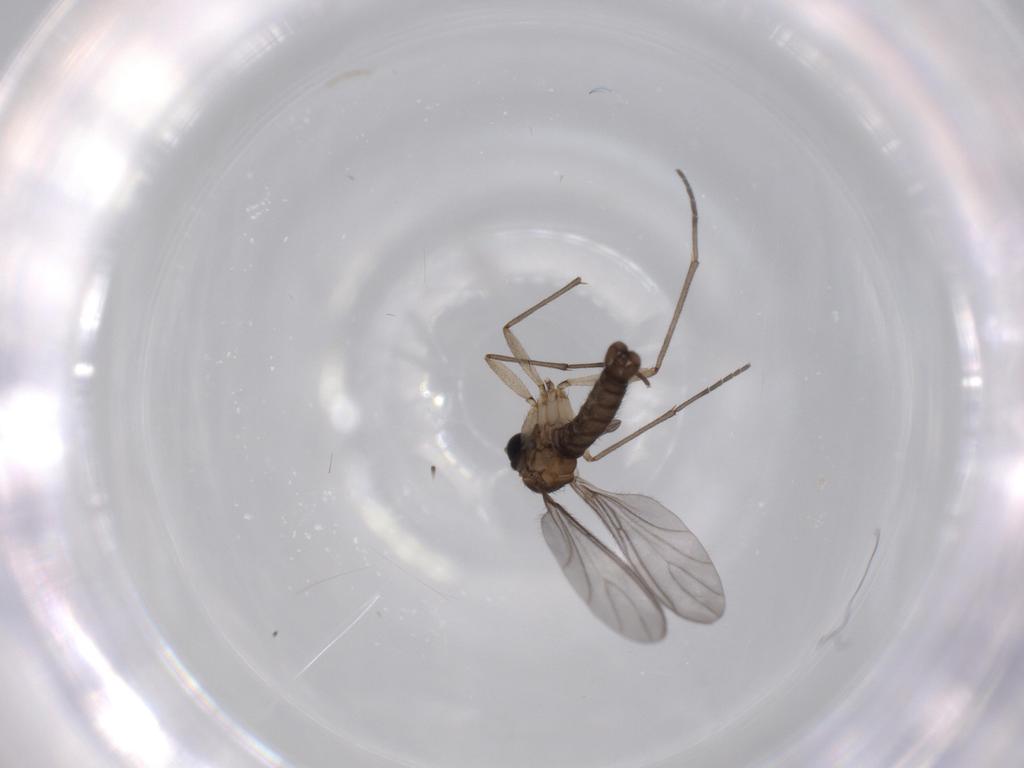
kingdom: Animalia
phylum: Arthropoda
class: Insecta
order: Diptera
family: Sciaridae
